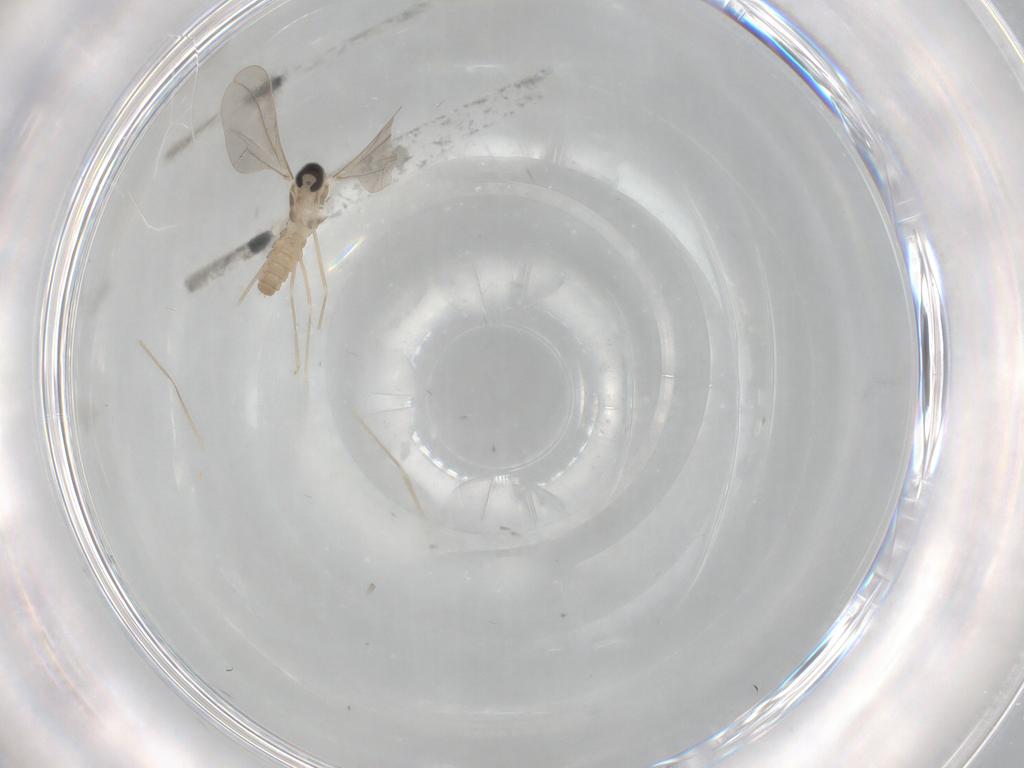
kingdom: Animalia
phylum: Arthropoda
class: Insecta
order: Diptera
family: Cecidomyiidae
